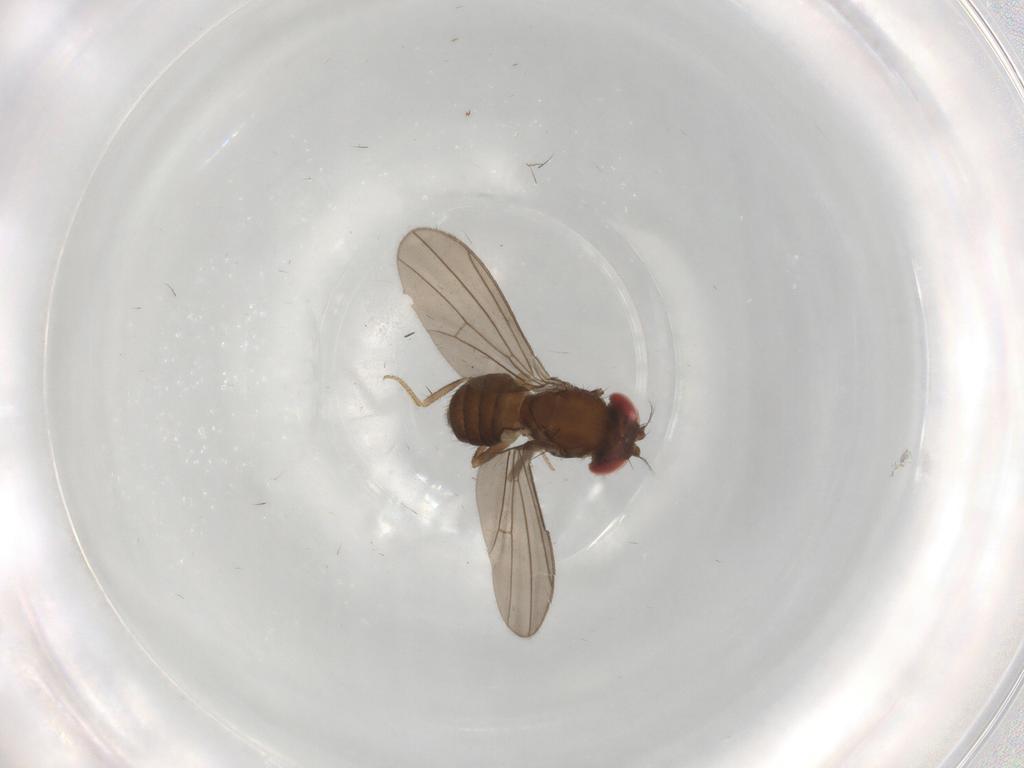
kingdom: Animalia
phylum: Arthropoda
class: Insecta
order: Diptera
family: Drosophilidae
